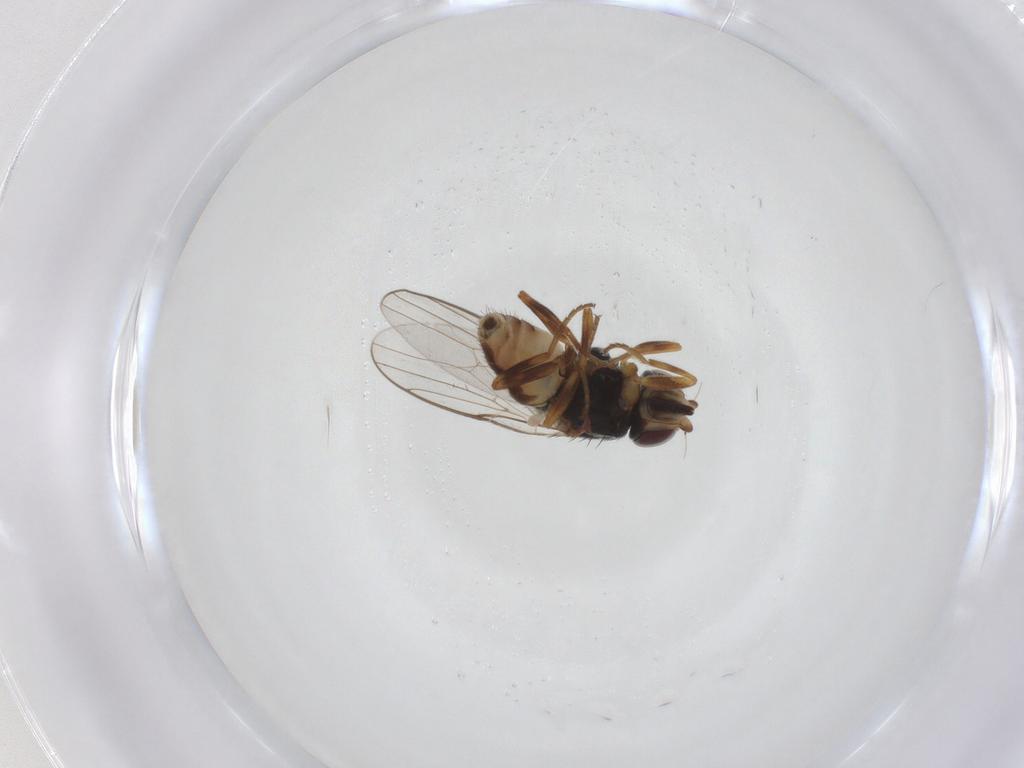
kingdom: Animalia
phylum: Arthropoda
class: Insecta
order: Diptera
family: Chloropidae
